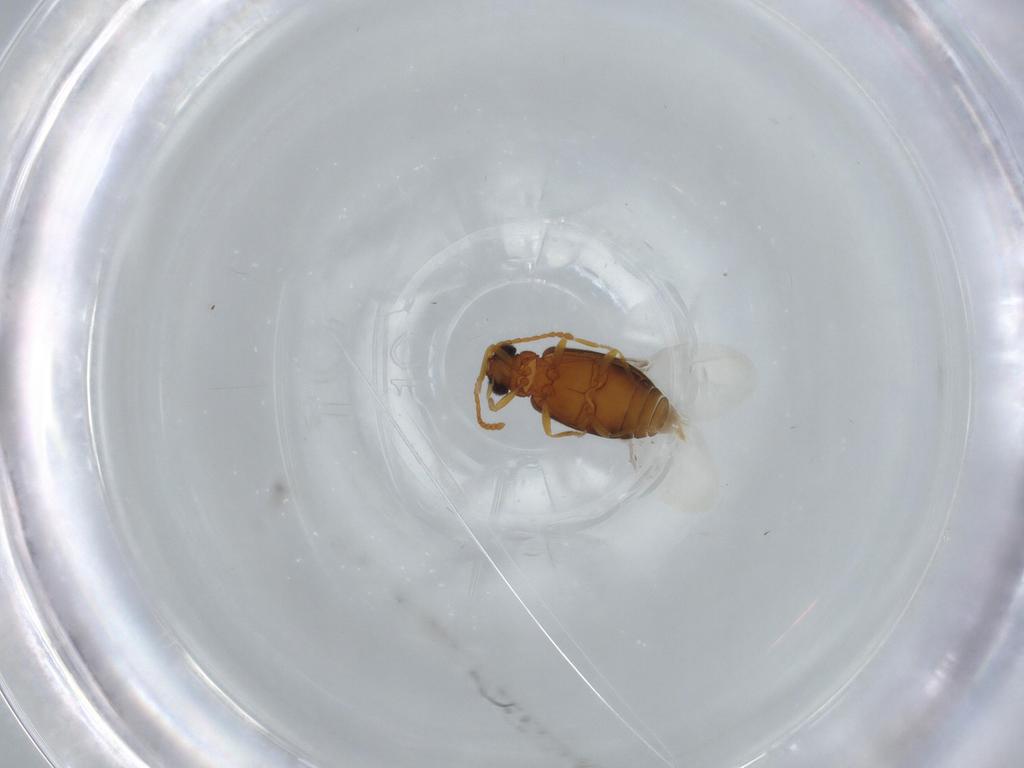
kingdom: Animalia
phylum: Arthropoda
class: Insecta
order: Coleoptera
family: Aderidae
